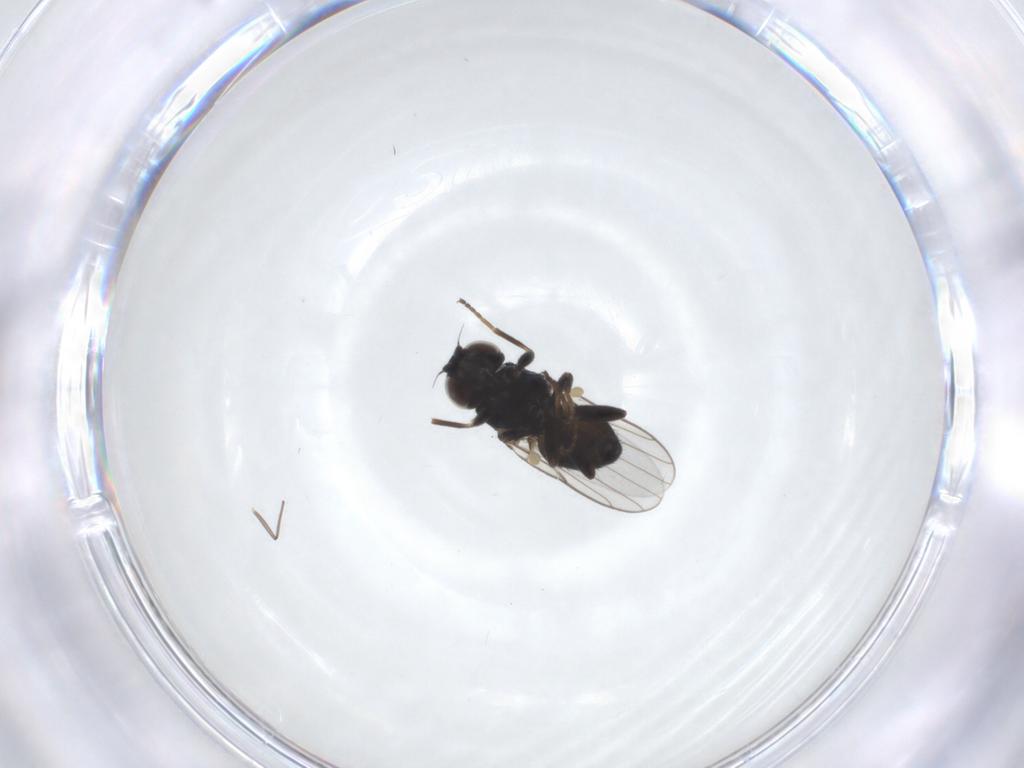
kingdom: Animalia
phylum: Arthropoda
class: Insecta
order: Diptera
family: Chloropidae
